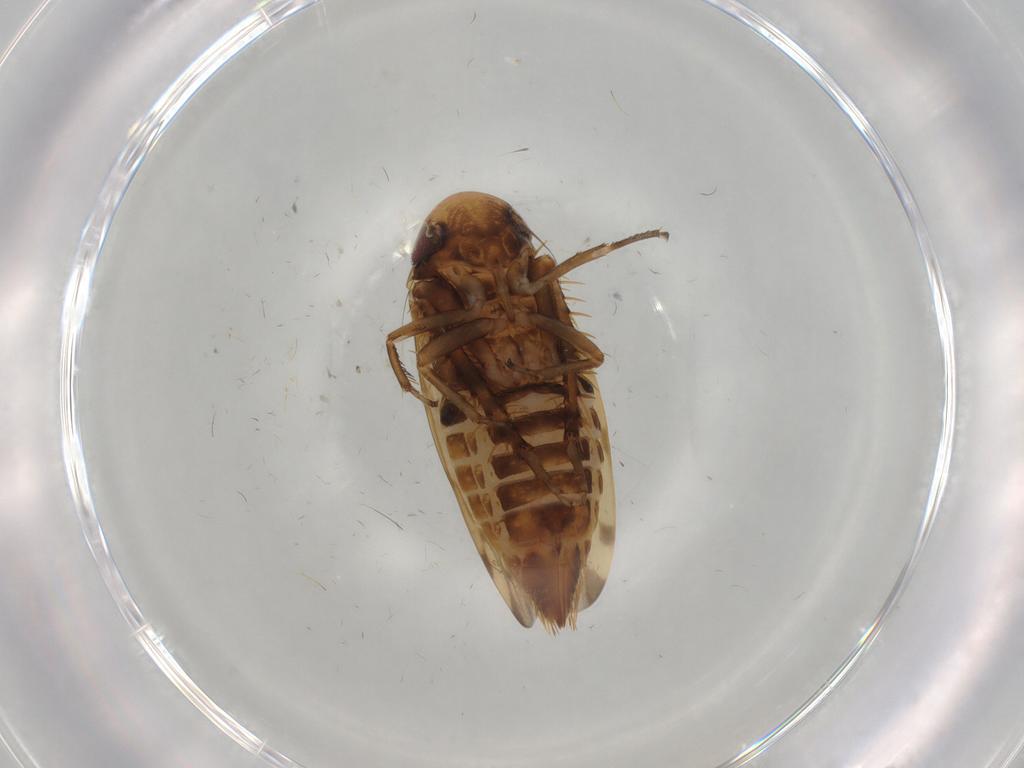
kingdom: Animalia
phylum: Arthropoda
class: Insecta
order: Hemiptera
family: Cicadellidae
